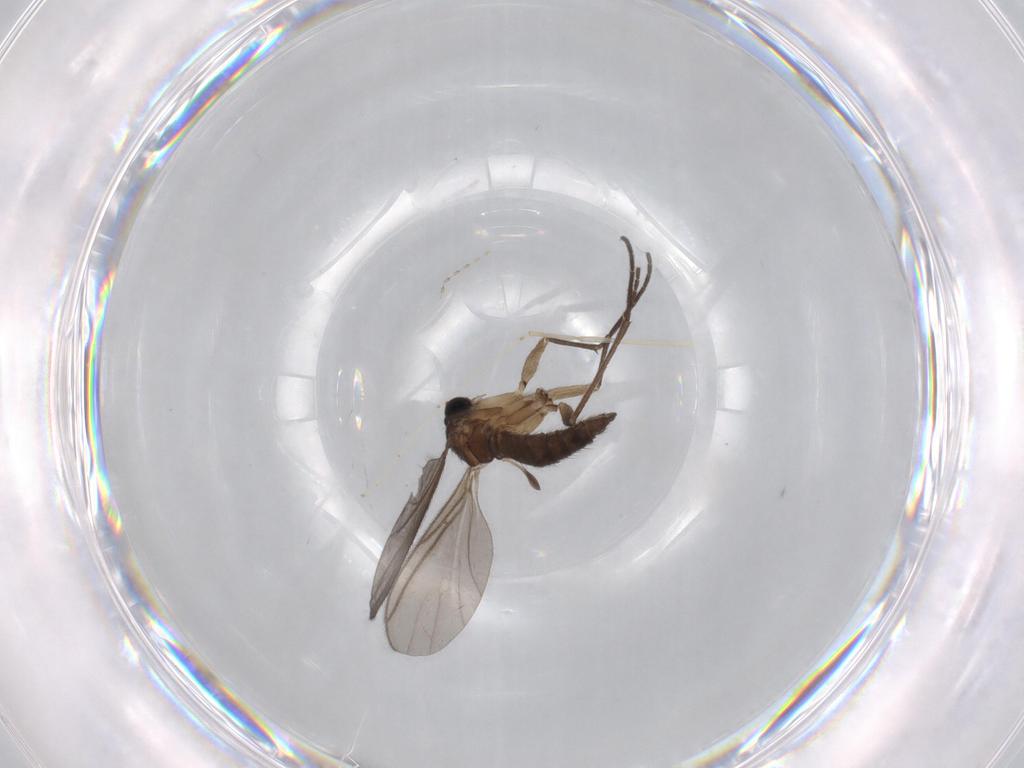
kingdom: Animalia
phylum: Arthropoda
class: Insecta
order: Diptera
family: Cecidomyiidae
